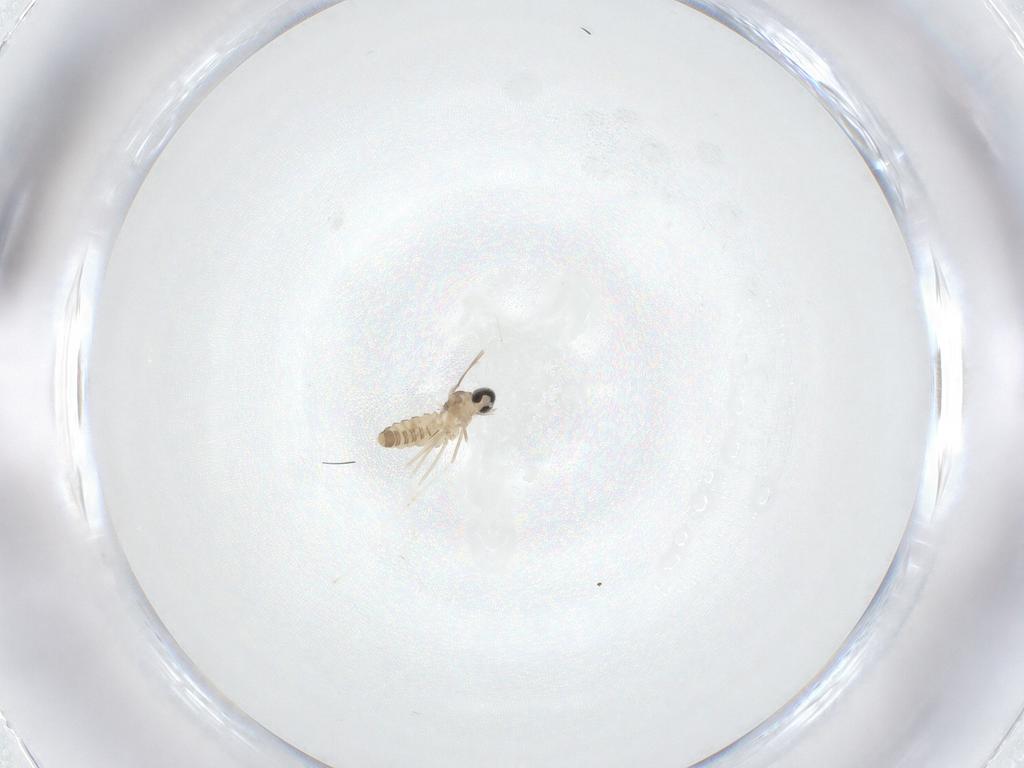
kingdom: Animalia
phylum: Arthropoda
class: Insecta
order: Diptera
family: Cecidomyiidae
